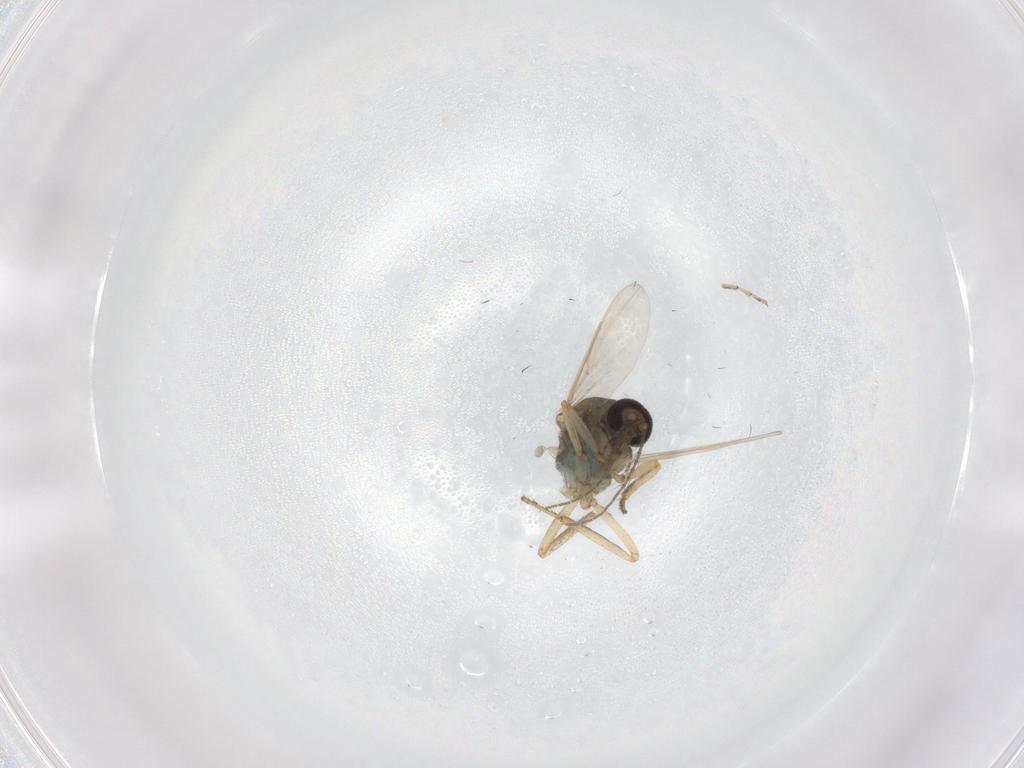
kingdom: Animalia
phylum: Arthropoda
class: Insecta
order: Diptera
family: Ceratopogonidae
